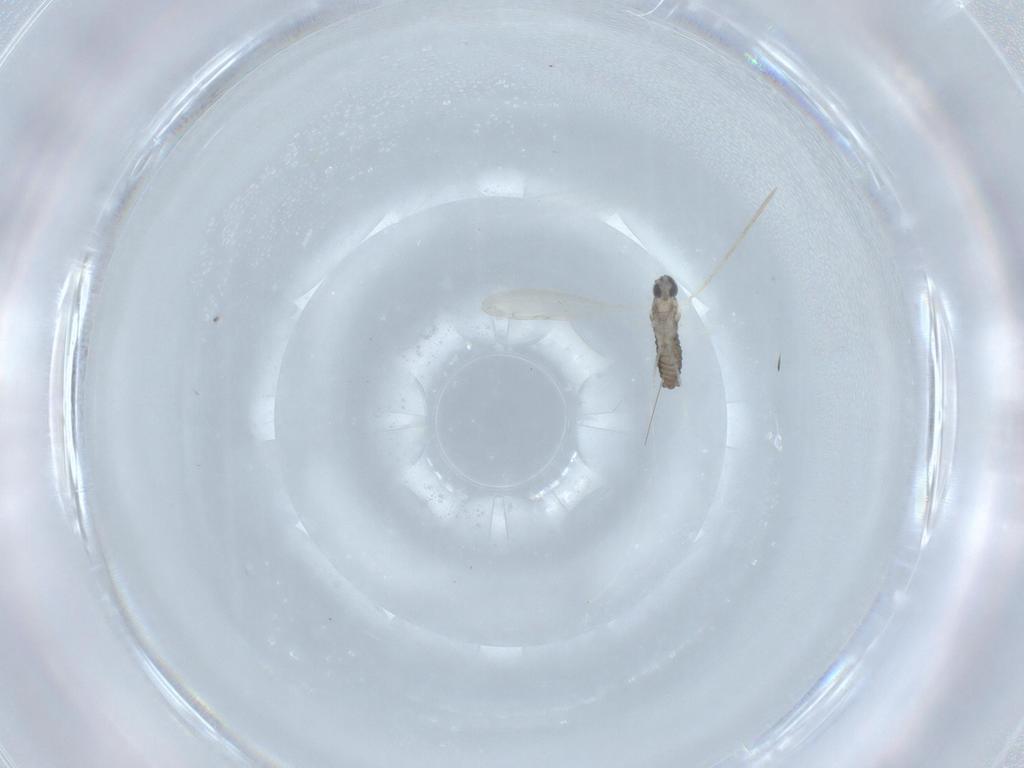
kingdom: Animalia
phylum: Arthropoda
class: Insecta
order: Diptera
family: Cecidomyiidae
